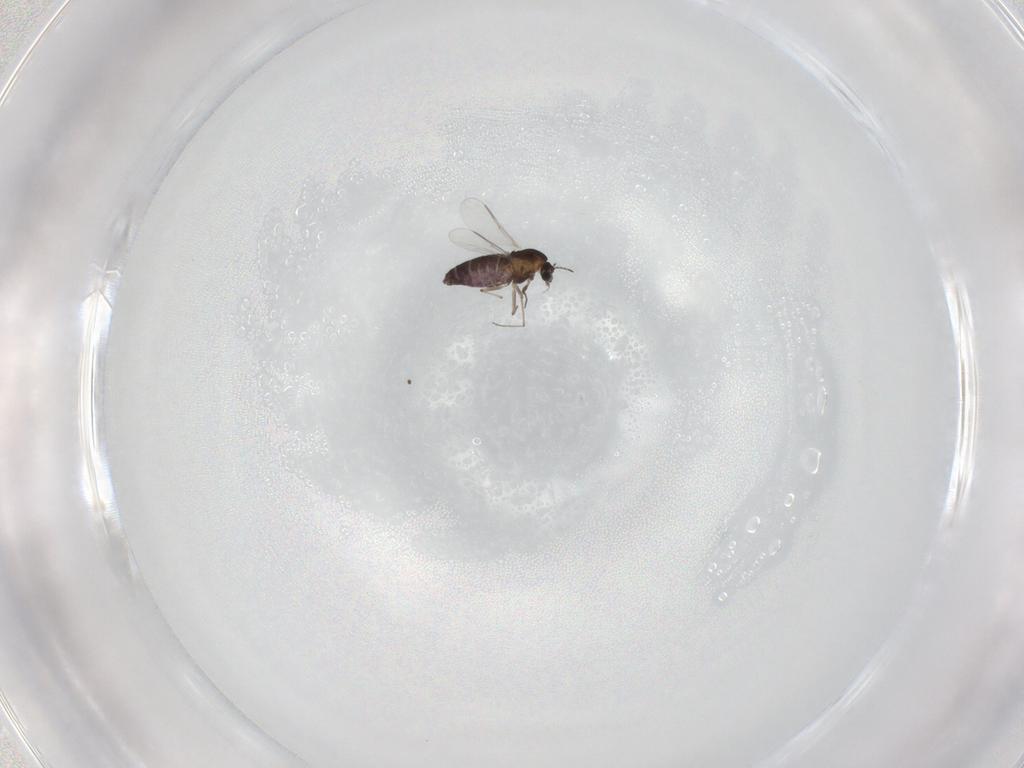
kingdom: Animalia
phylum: Arthropoda
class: Insecta
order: Diptera
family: Chironomidae
